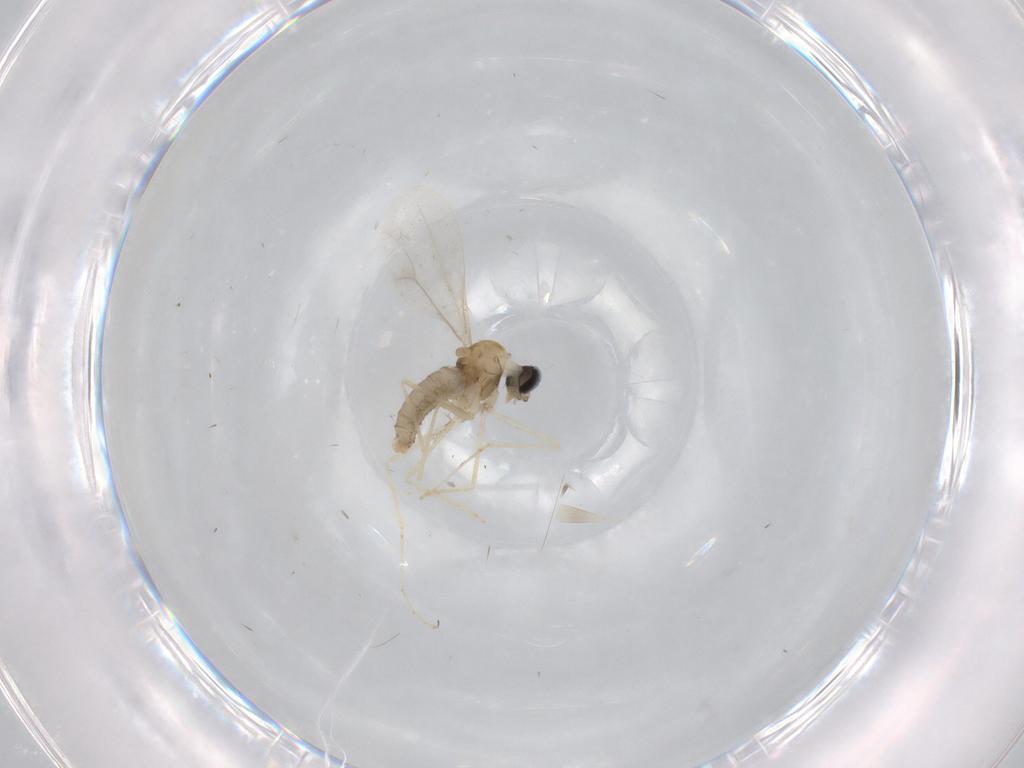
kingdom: Animalia
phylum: Arthropoda
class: Insecta
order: Diptera
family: Cecidomyiidae
